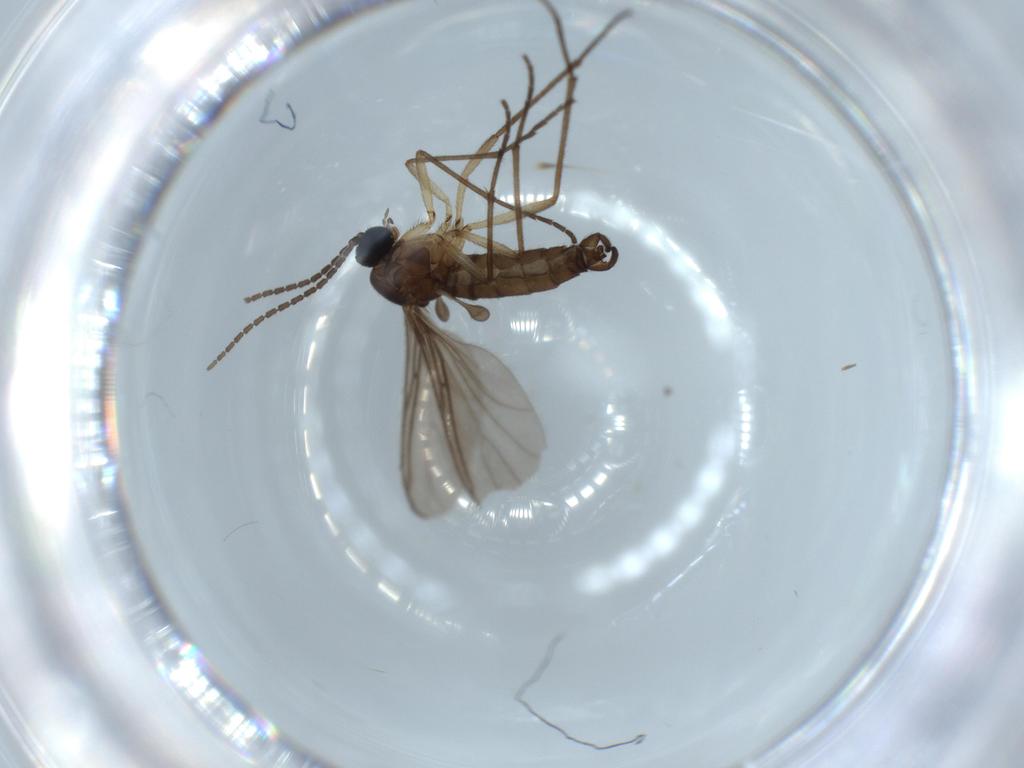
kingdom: Animalia
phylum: Arthropoda
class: Insecta
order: Diptera
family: Sciaridae
